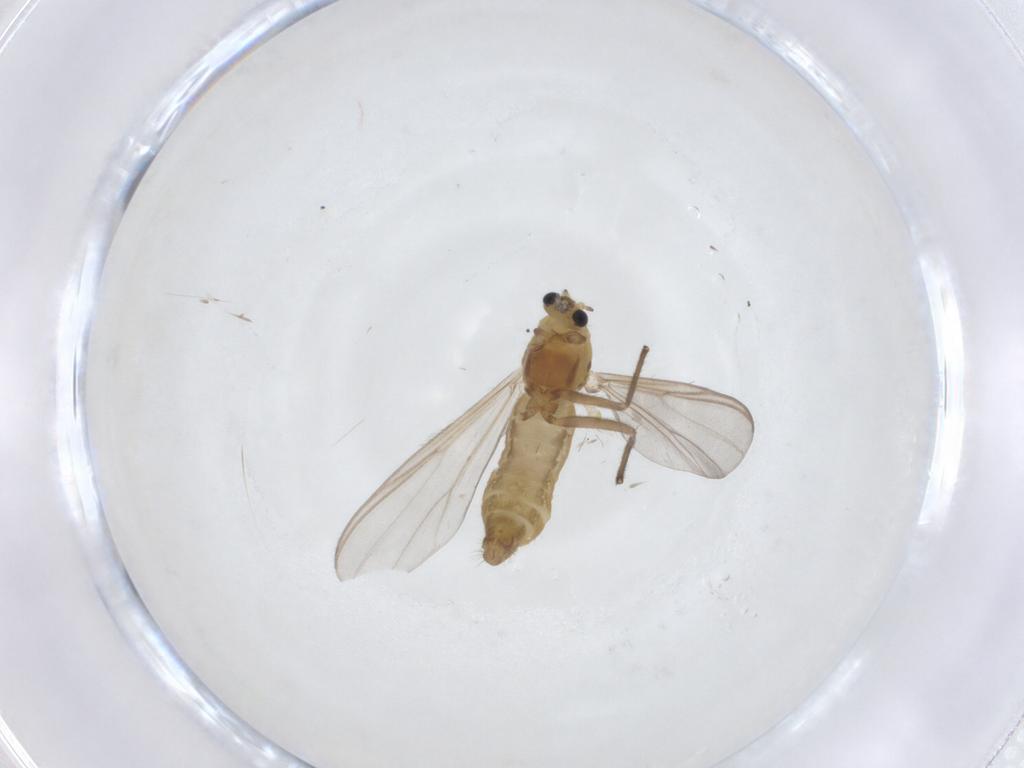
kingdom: Animalia
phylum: Arthropoda
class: Insecta
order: Diptera
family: Chironomidae
